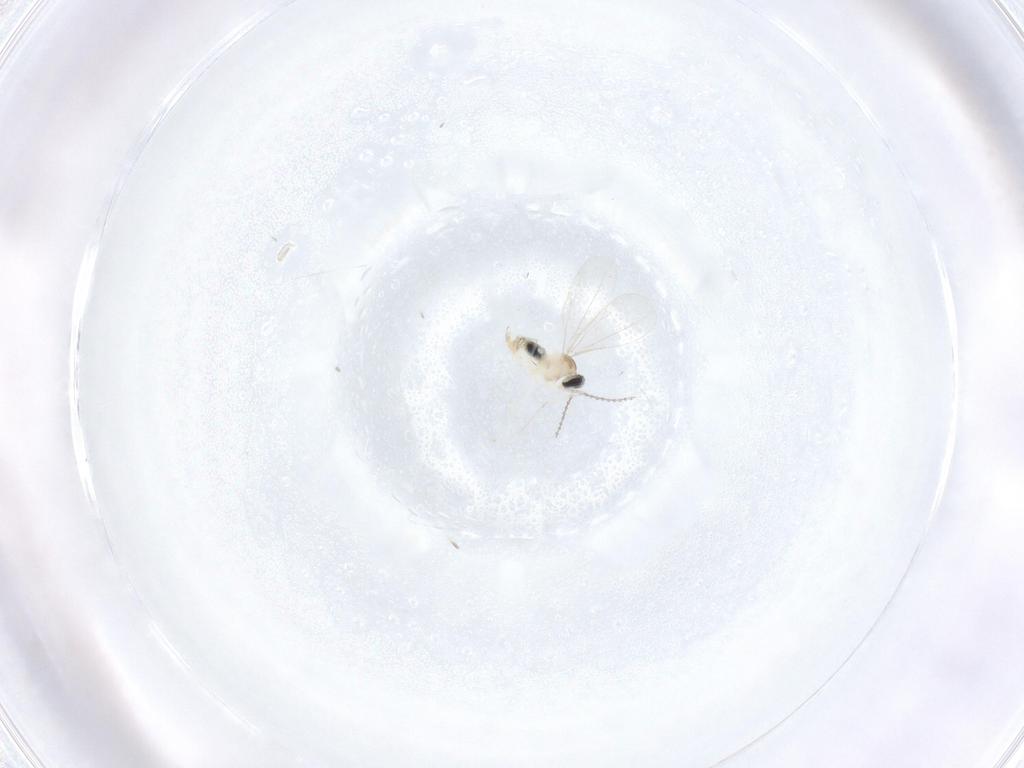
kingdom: Animalia
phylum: Arthropoda
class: Insecta
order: Diptera
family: Cecidomyiidae
